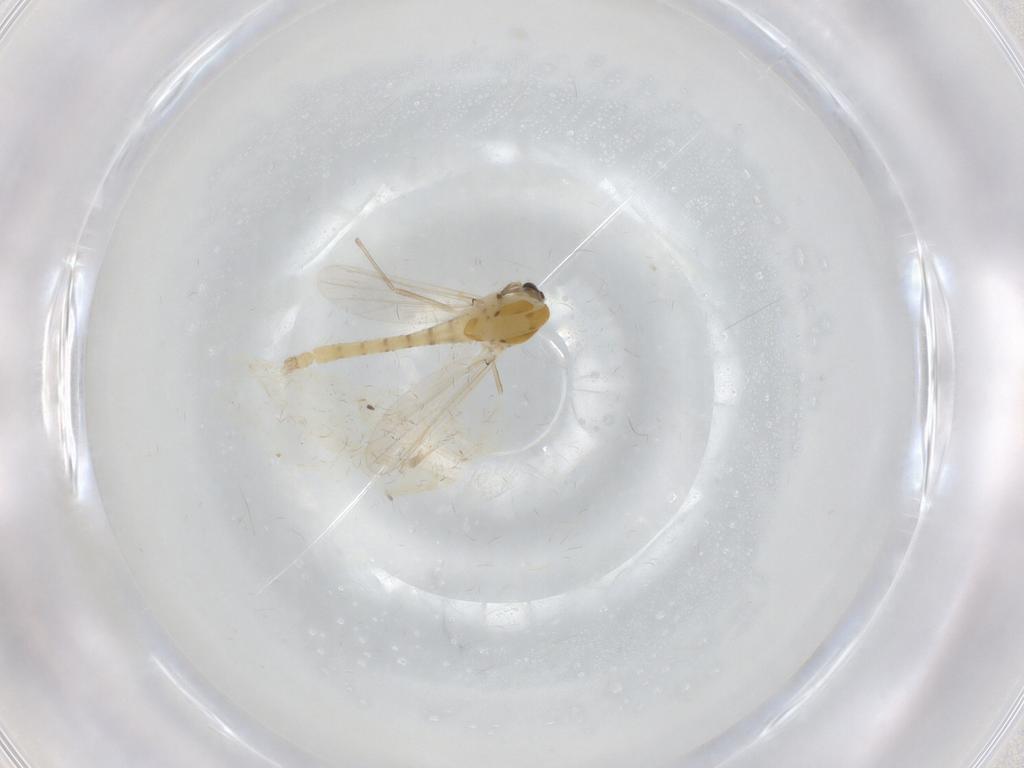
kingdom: Animalia
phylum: Arthropoda
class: Insecta
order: Diptera
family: Chironomidae
